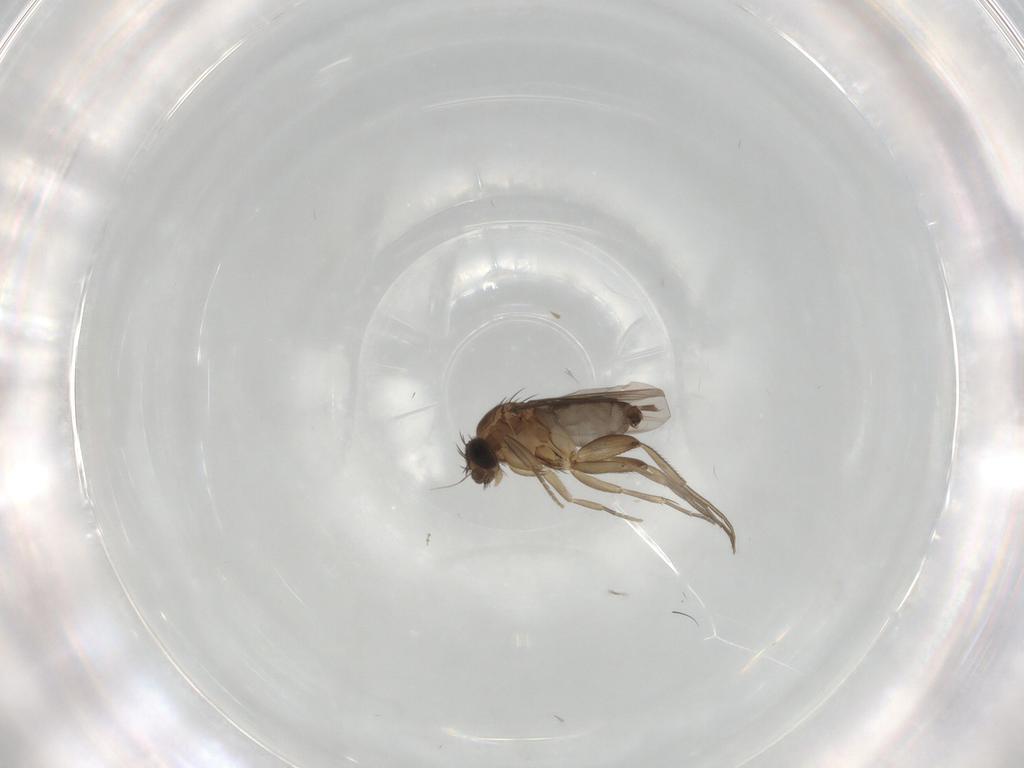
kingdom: Animalia
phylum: Arthropoda
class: Insecta
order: Diptera
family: Phoridae
